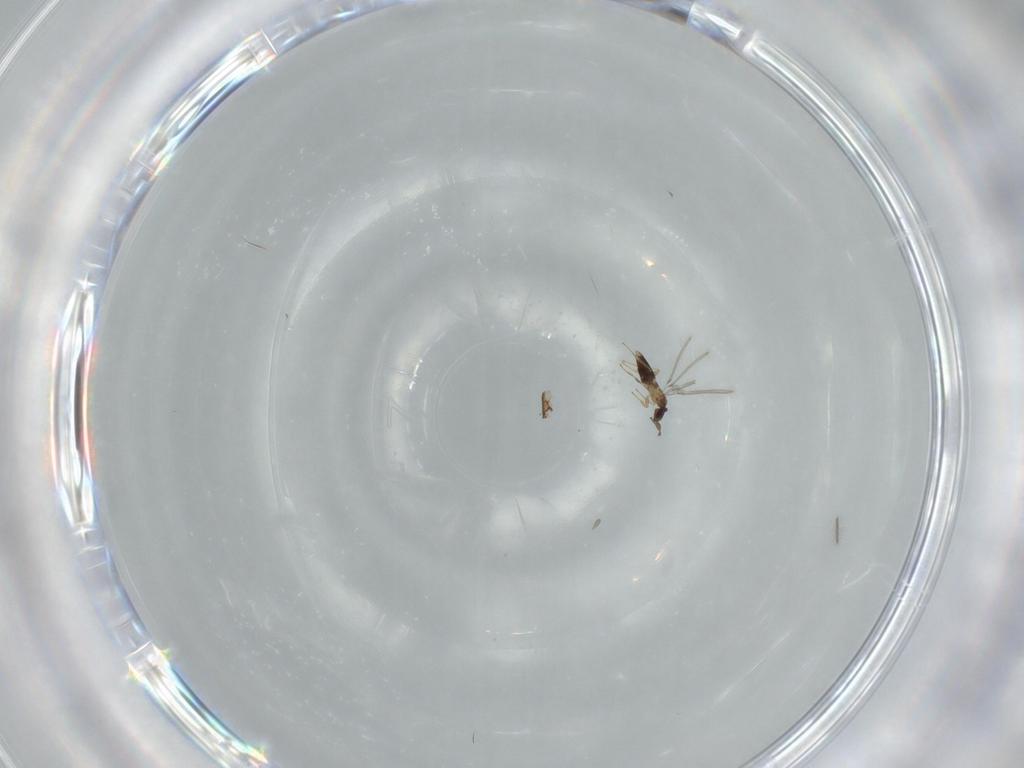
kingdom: Animalia
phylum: Arthropoda
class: Insecta
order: Hymenoptera
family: Mymaridae
